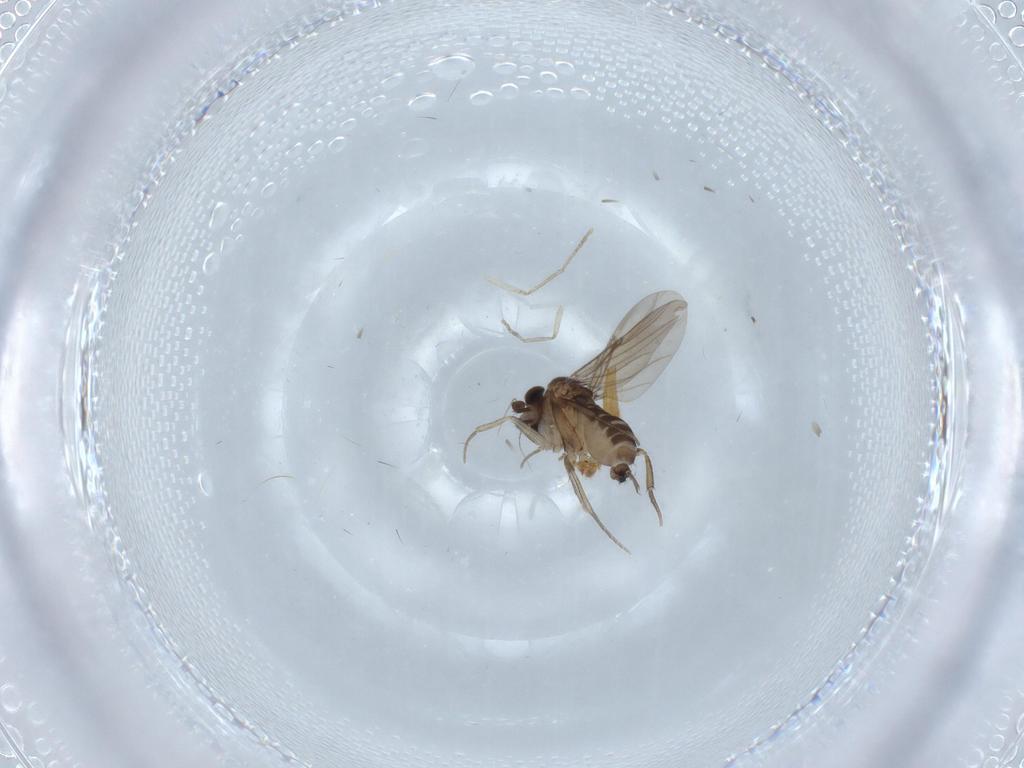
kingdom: Animalia
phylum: Arthropoda
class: Insecta
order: Diptera
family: Phoridae
